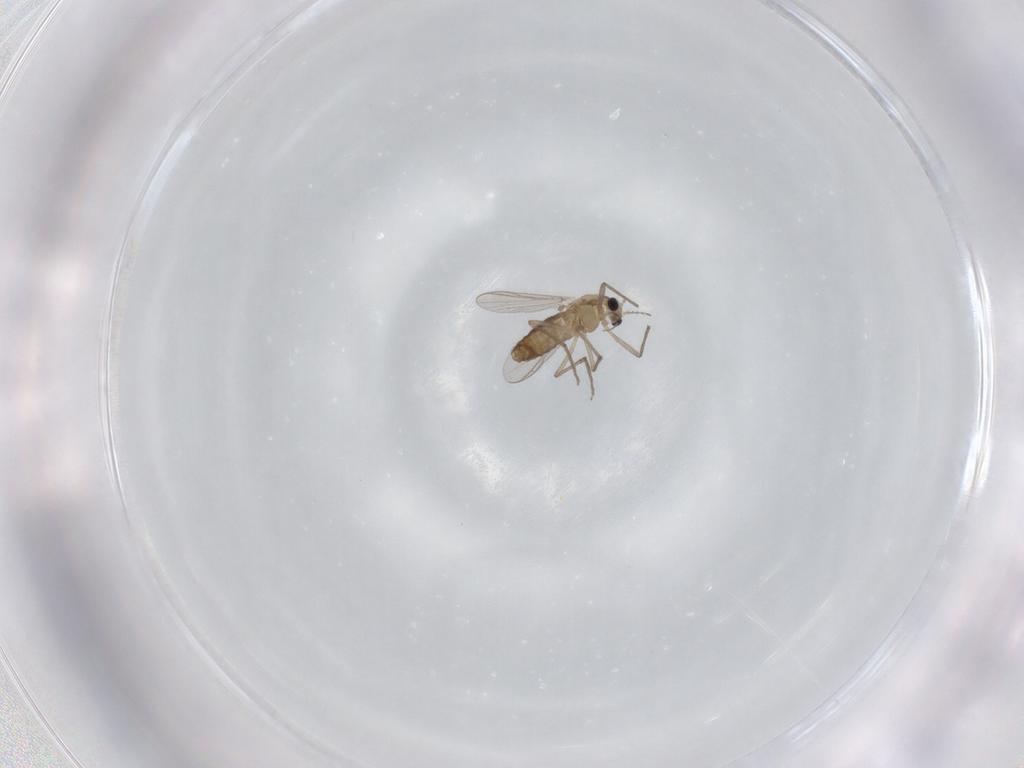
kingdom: Animalia
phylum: Arthropoda
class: Insecta
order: Diptera
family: Chironomidae
